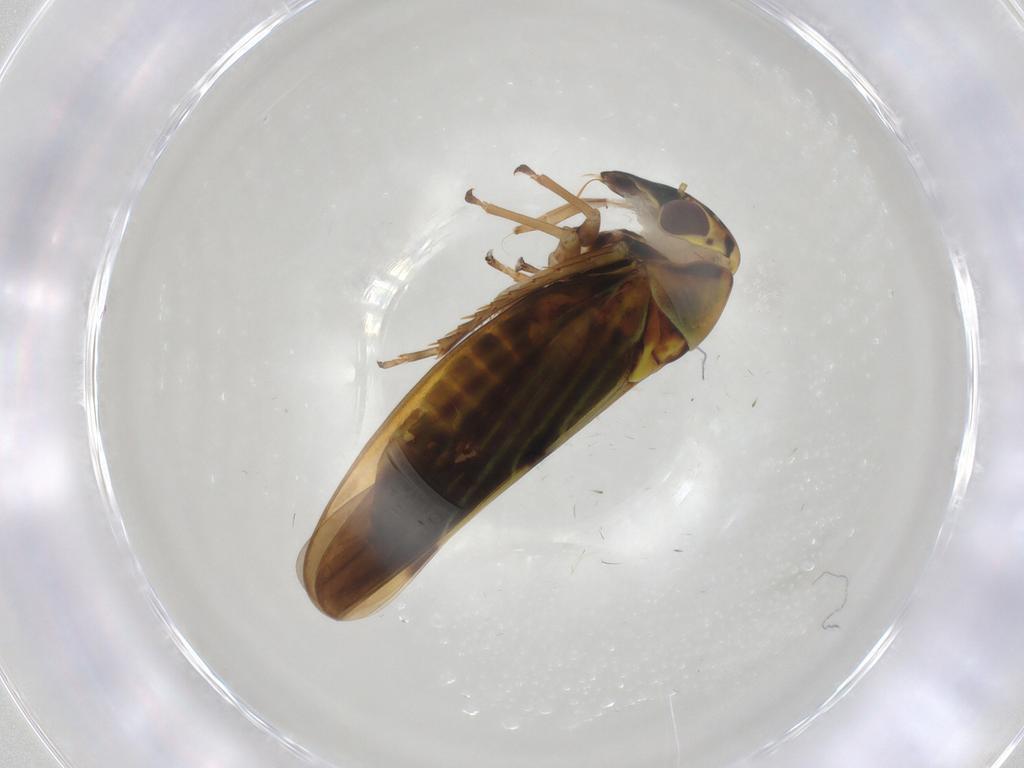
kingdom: Animalia
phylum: Arthropoda
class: Insecta
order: Hemiptera
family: Cicadellidae
